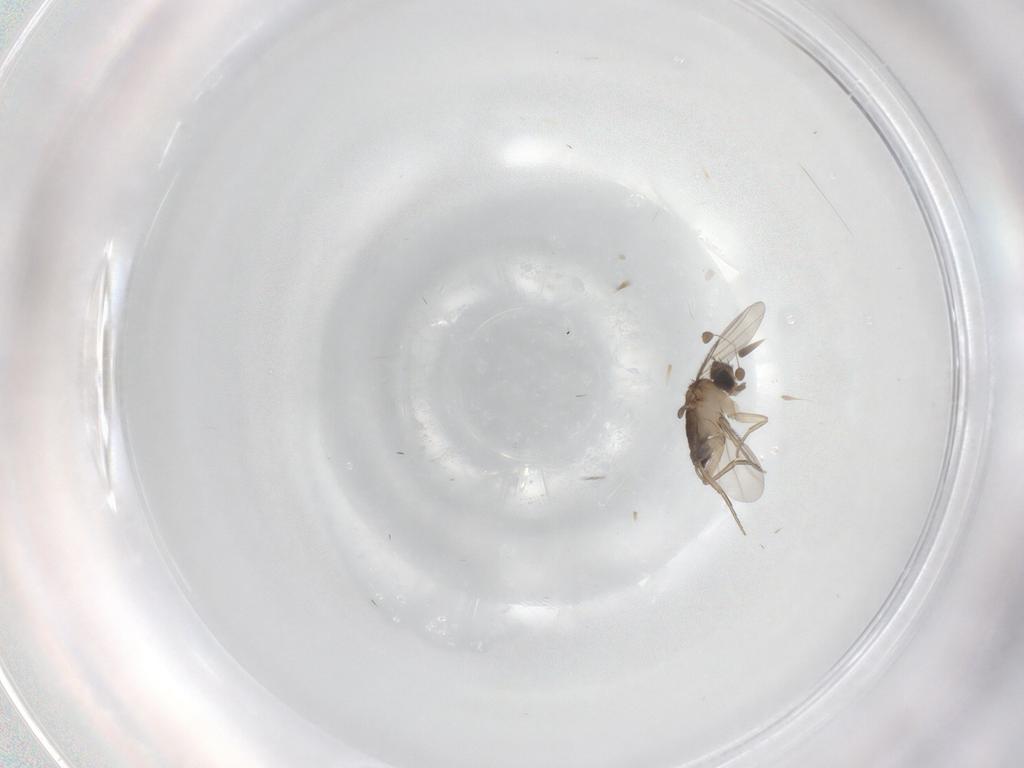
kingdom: Animalia
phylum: Arthropoda
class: Insecta
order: Diptera
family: Phoridae
